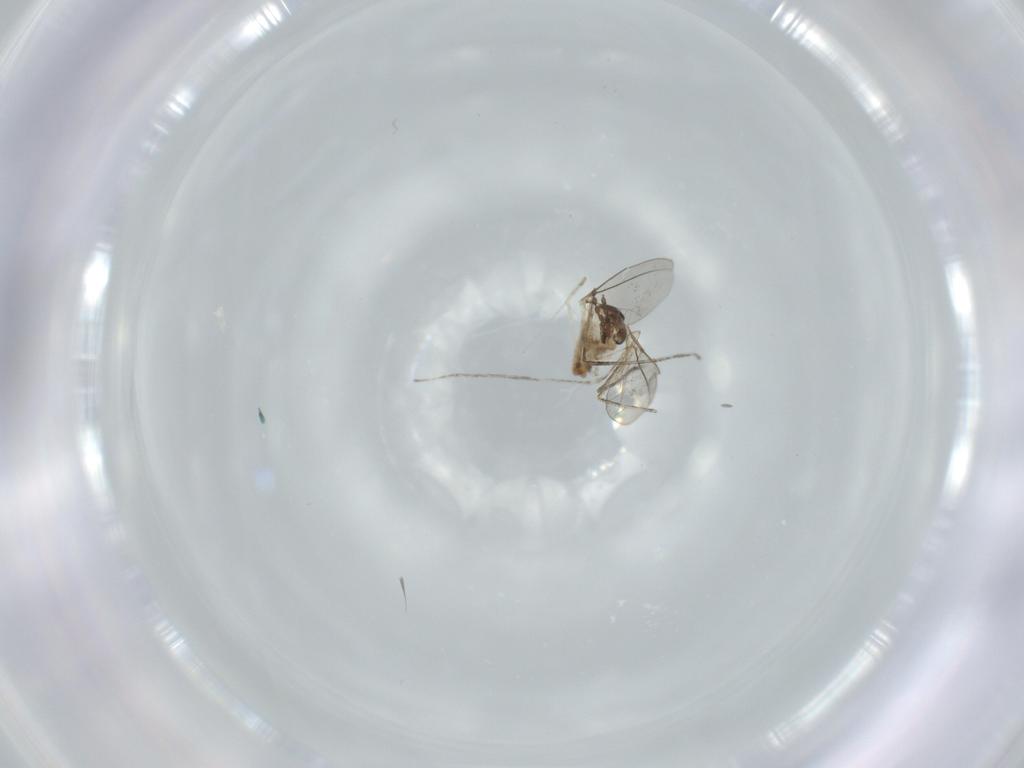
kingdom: Animalia
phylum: Arthropoda
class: Insecta
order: Diptera
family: Cecidomyiidae
